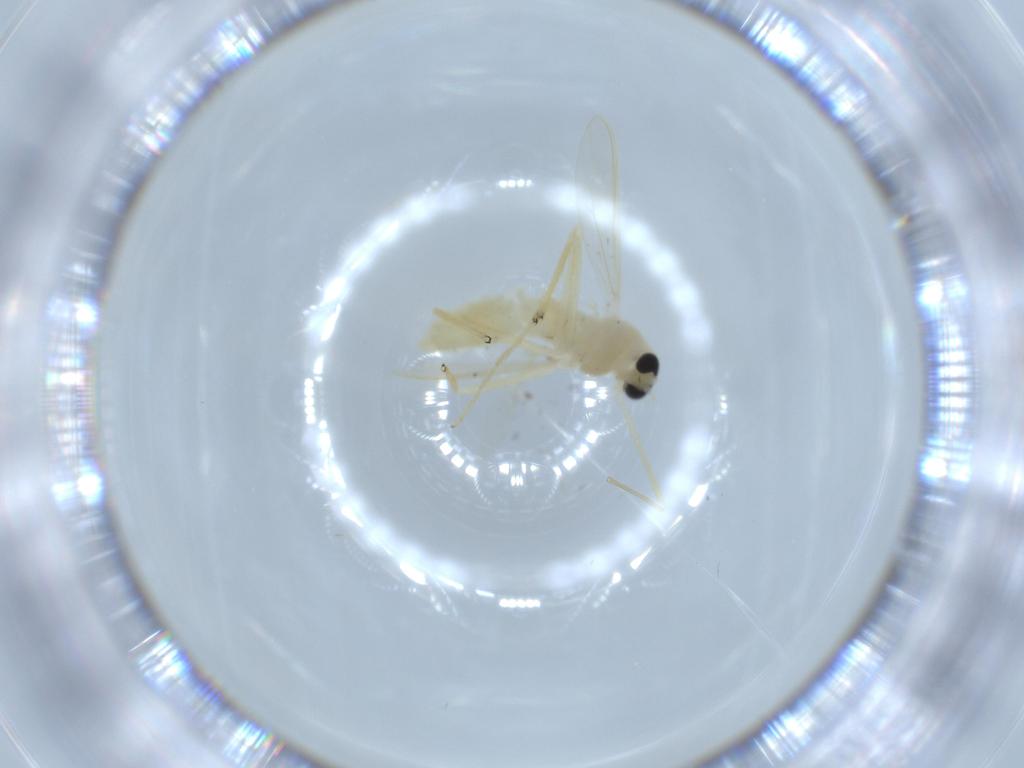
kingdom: Animalia
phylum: Arthropoda
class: Insecta
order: Diptera
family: Chironomidae
